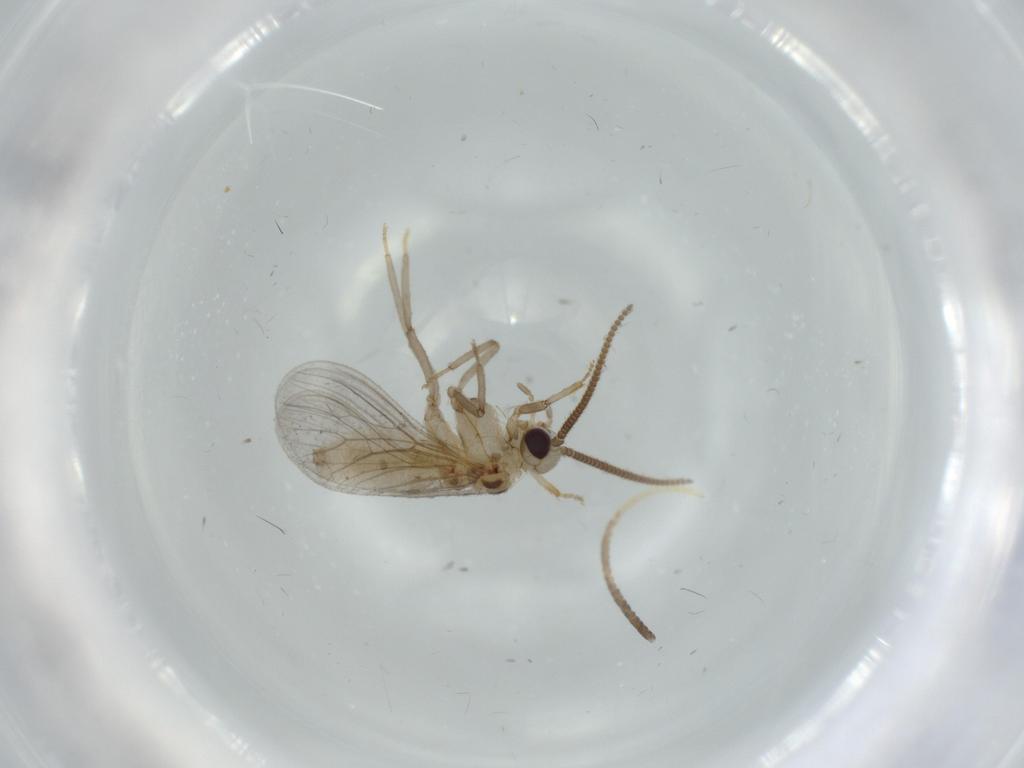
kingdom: Animalia
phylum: Arthropoda
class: Insecta
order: Neuroptera
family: Coniopterygidae
